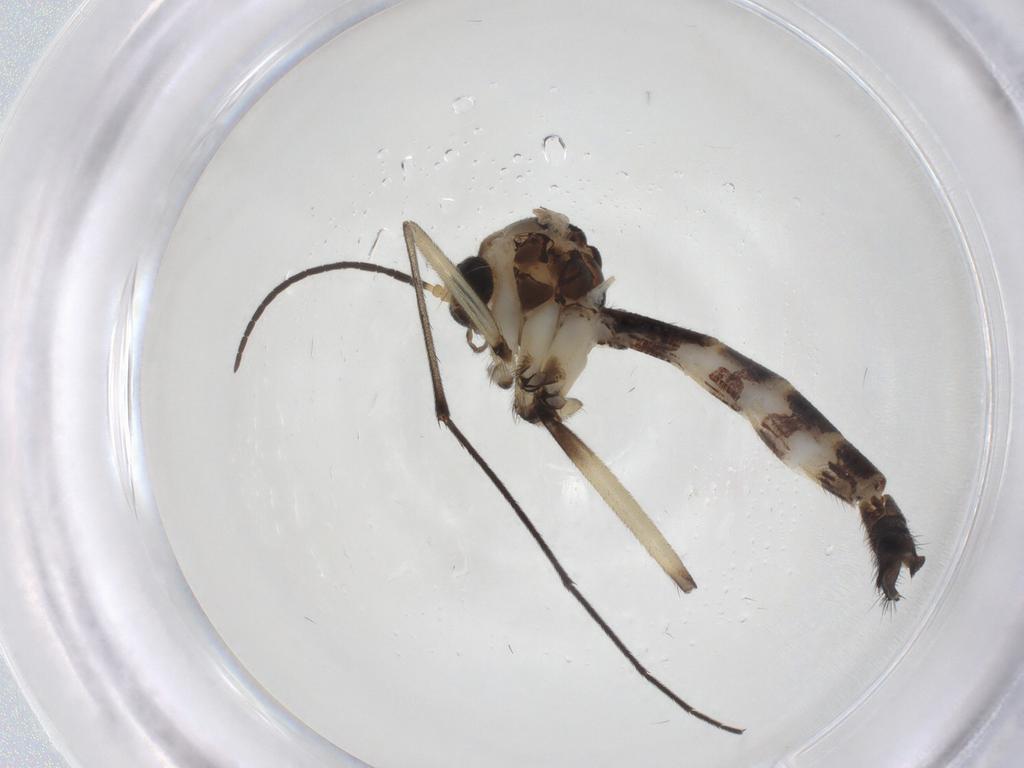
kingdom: Animalia
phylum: Arthropoda
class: Insecta
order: Diptera
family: Mycetophilidae
